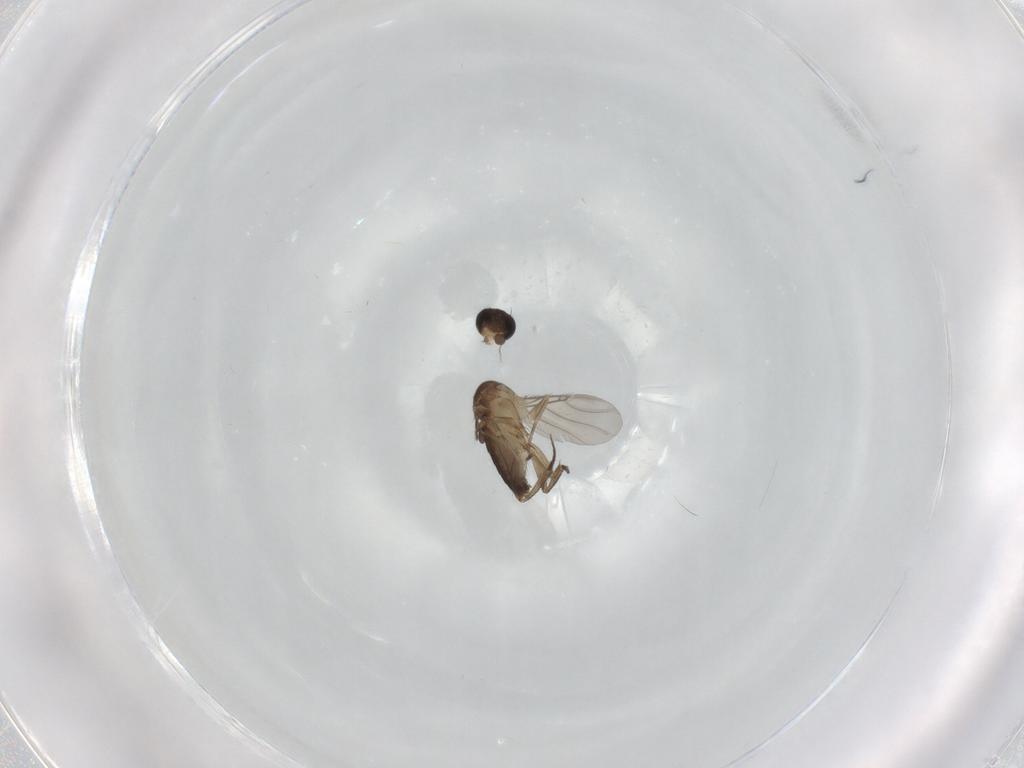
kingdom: Animalia
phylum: Arthropoda
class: Insecta
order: Diptera
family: Phoridae
